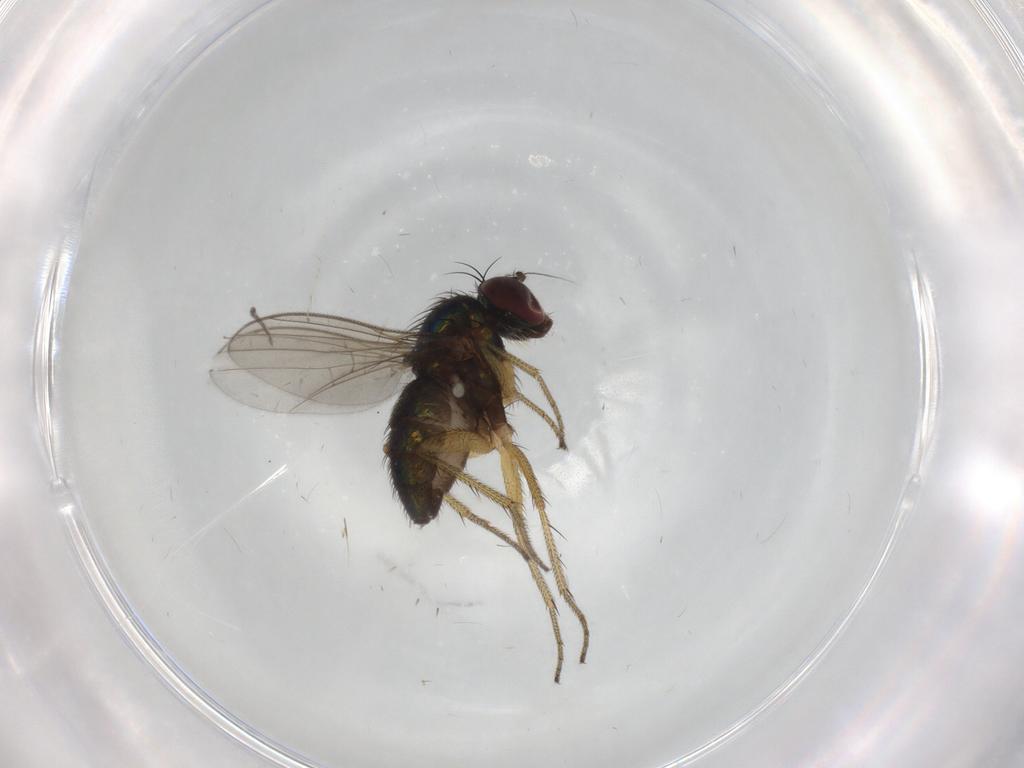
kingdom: Animalia
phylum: Arthropoda
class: Insecta
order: Diptera
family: Sciaridae
